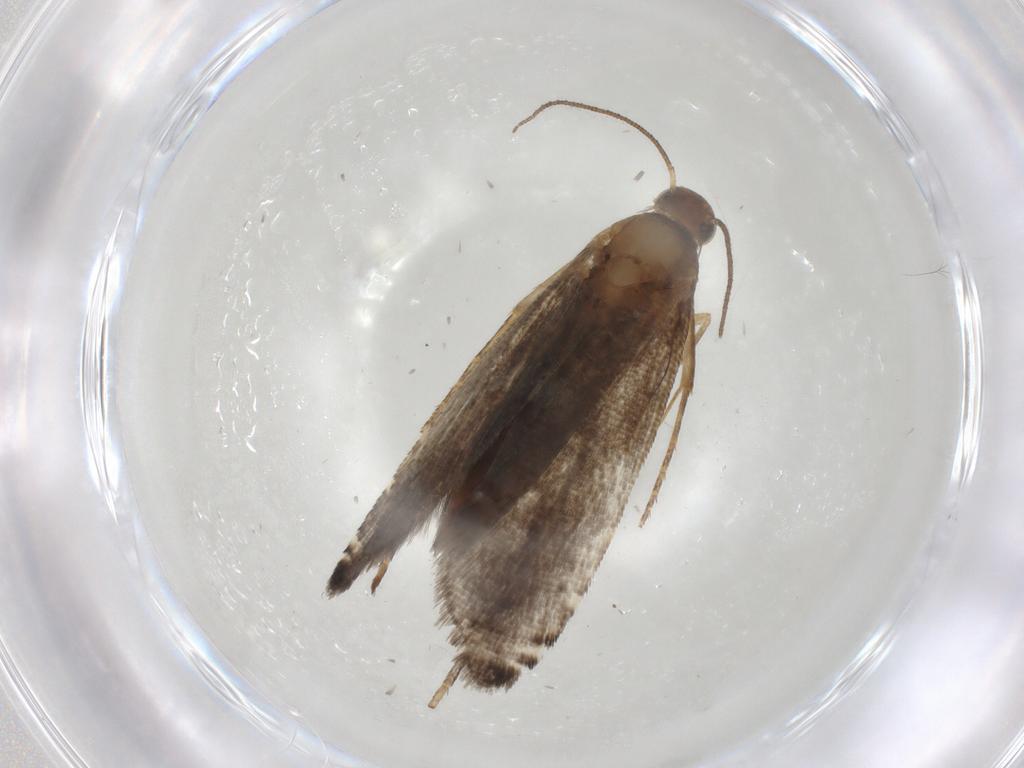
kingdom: Animalia
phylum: Arthropoda
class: Insecta
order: Lepidoptera
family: Glyphipterigidae
